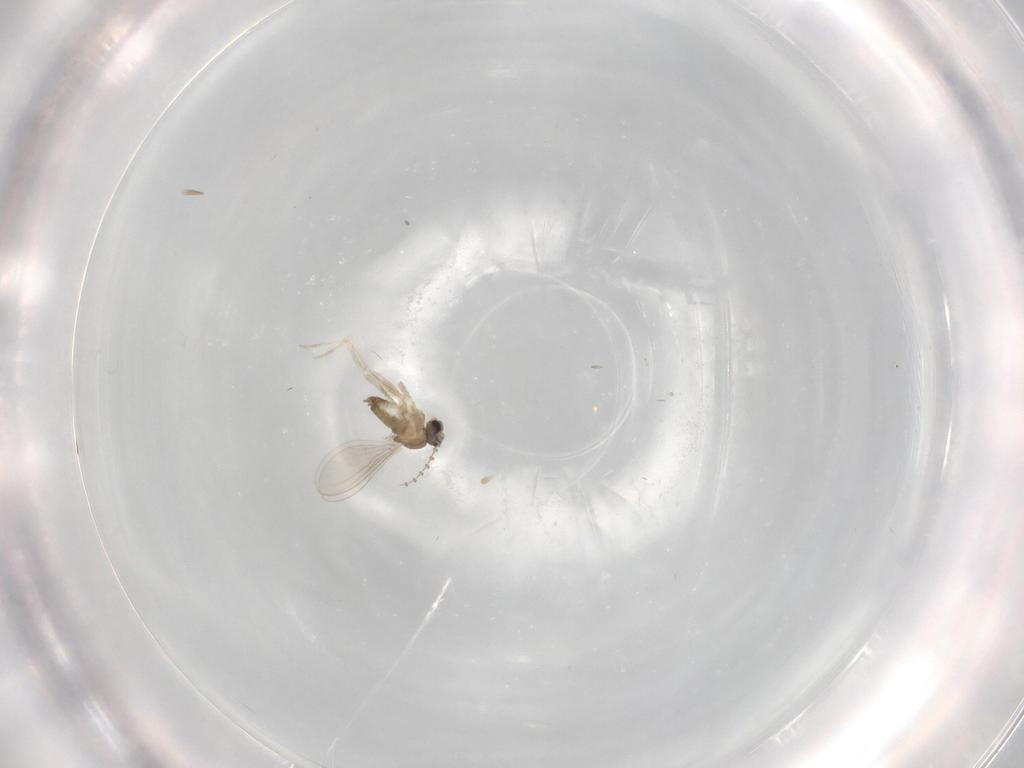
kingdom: Animalia
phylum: Arthropoda
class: Insecta
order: Diptera
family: Cecidomyiidae
